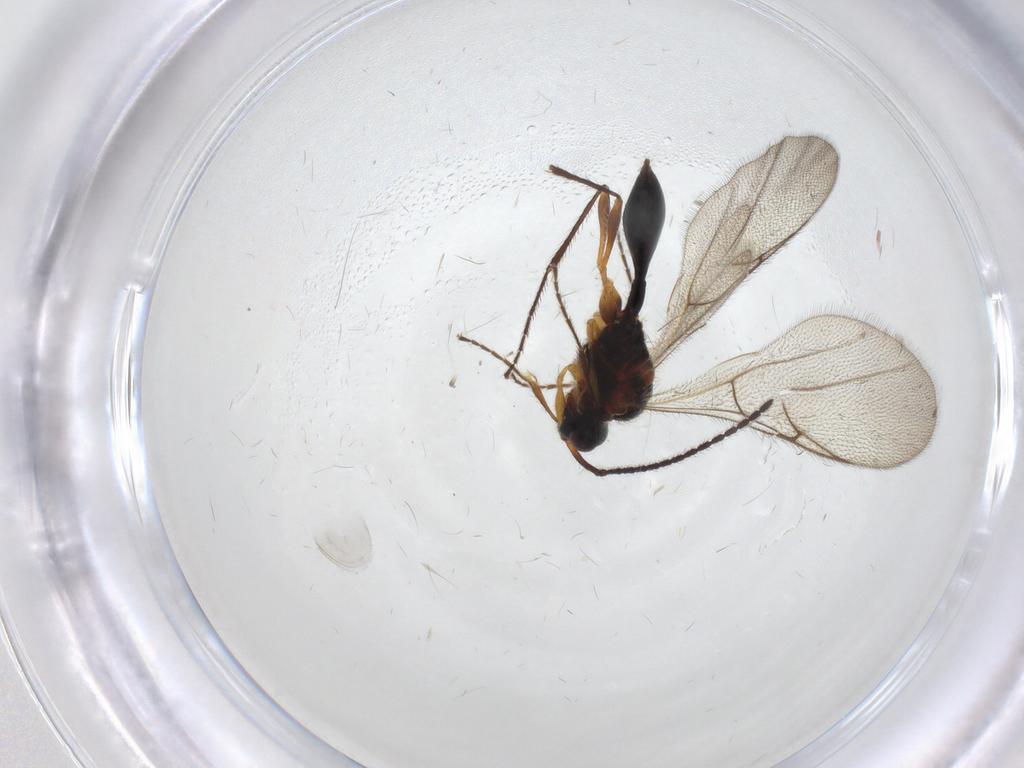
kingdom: Animalia
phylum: Arthropoda
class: Insecta
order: Hymenoptera
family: Diapriidae
